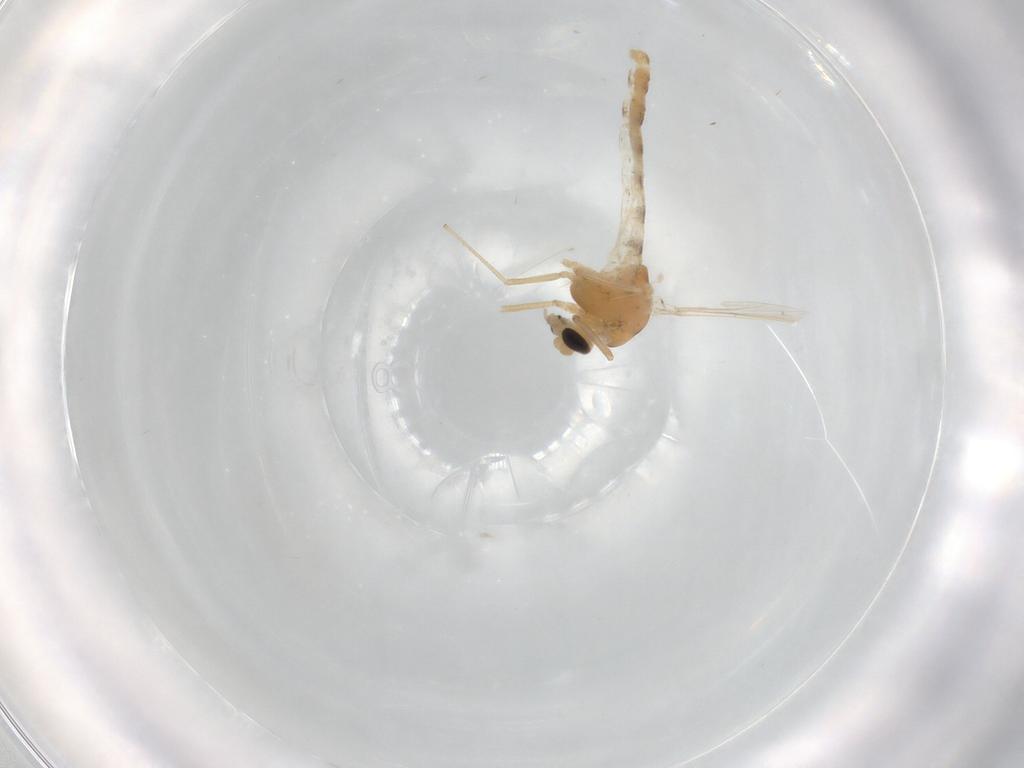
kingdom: Animalia
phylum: Arthropoda
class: Insecta
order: Diptera
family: Chironomidae
